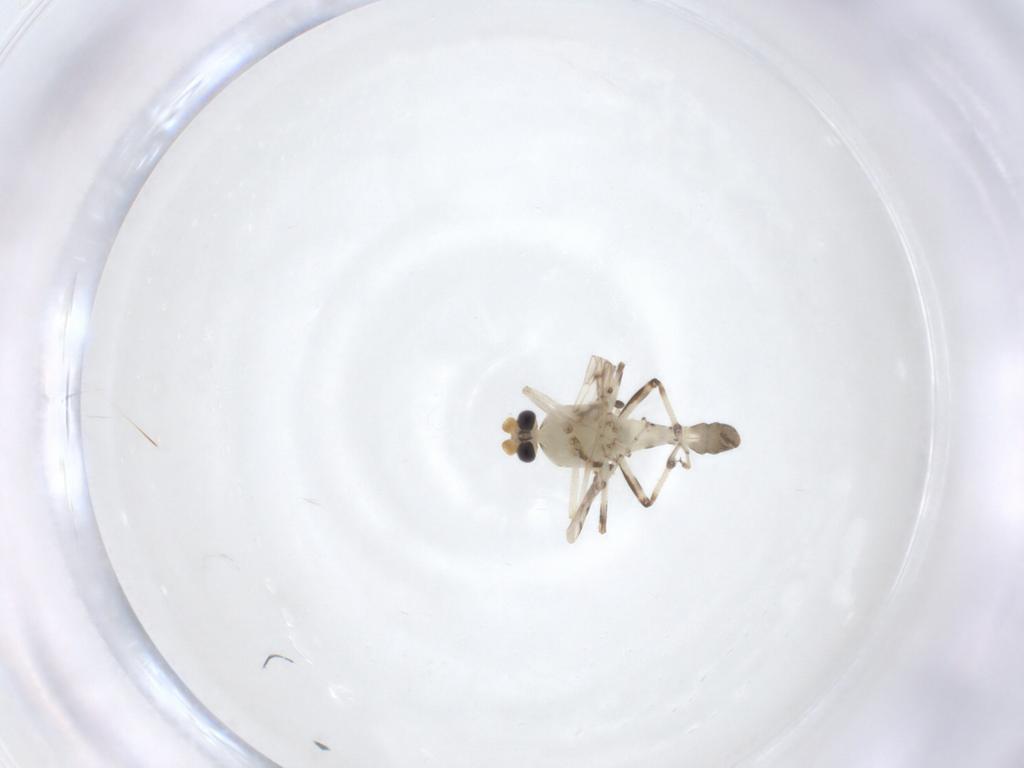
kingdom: Animalia
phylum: Arthropoda
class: Insecta
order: Diptera
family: Ceratopogonidae
